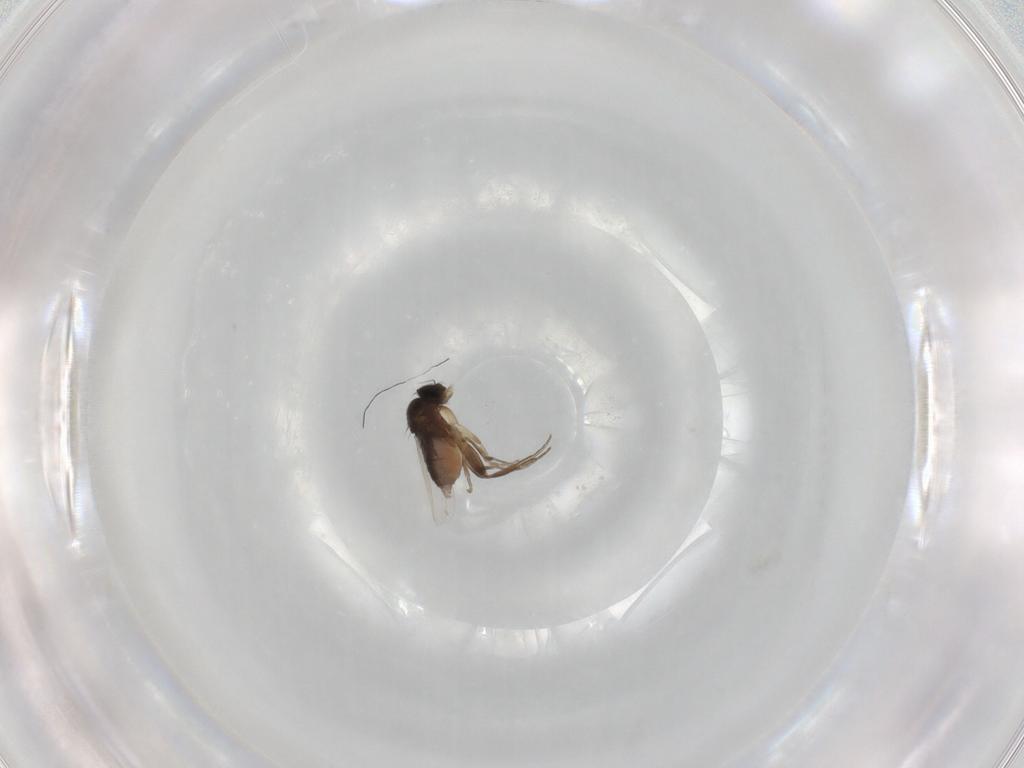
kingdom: Animalia
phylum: Arthropoda
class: Insecta
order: Diptera
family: Phoridae
